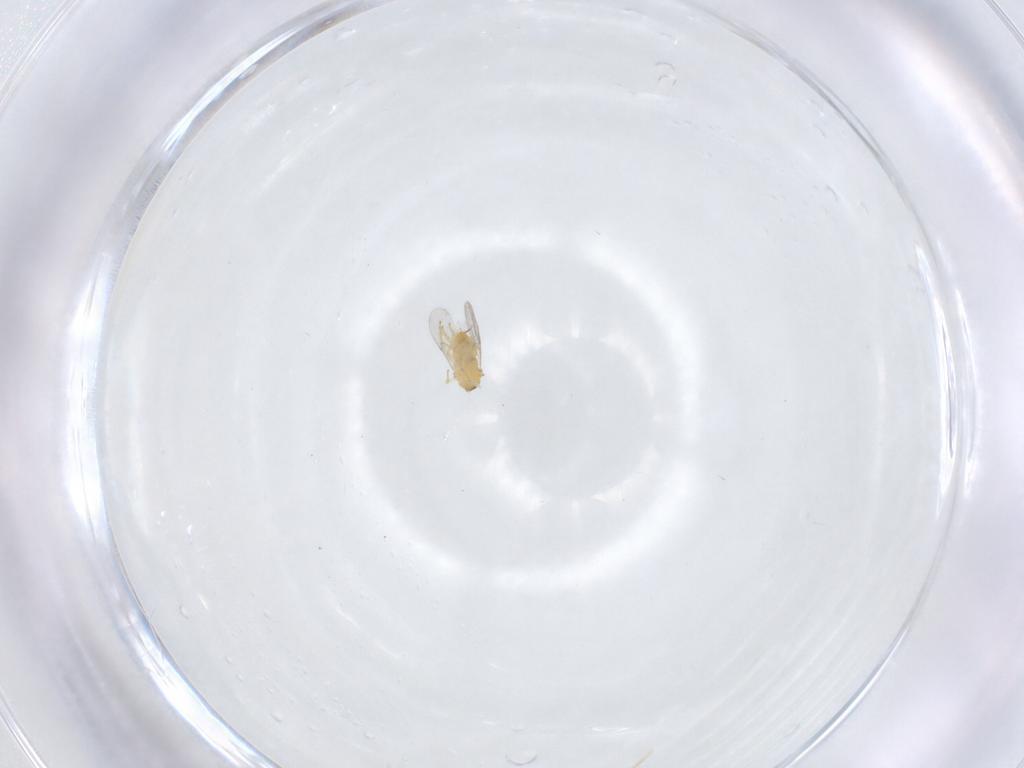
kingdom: Animalia
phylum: Arthropoda
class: Insecta
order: Hymenoptera
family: Encyrtidae
